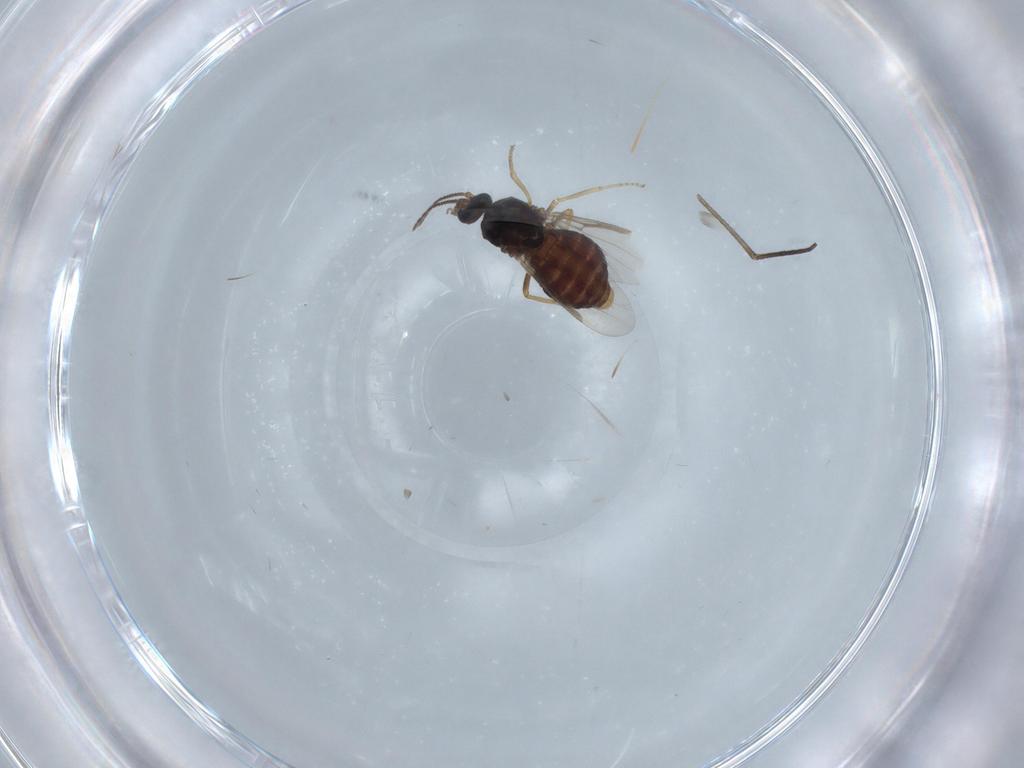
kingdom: Animalia
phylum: Arthropoda
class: Insecta
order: Diptera
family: Ceratopogonidae
